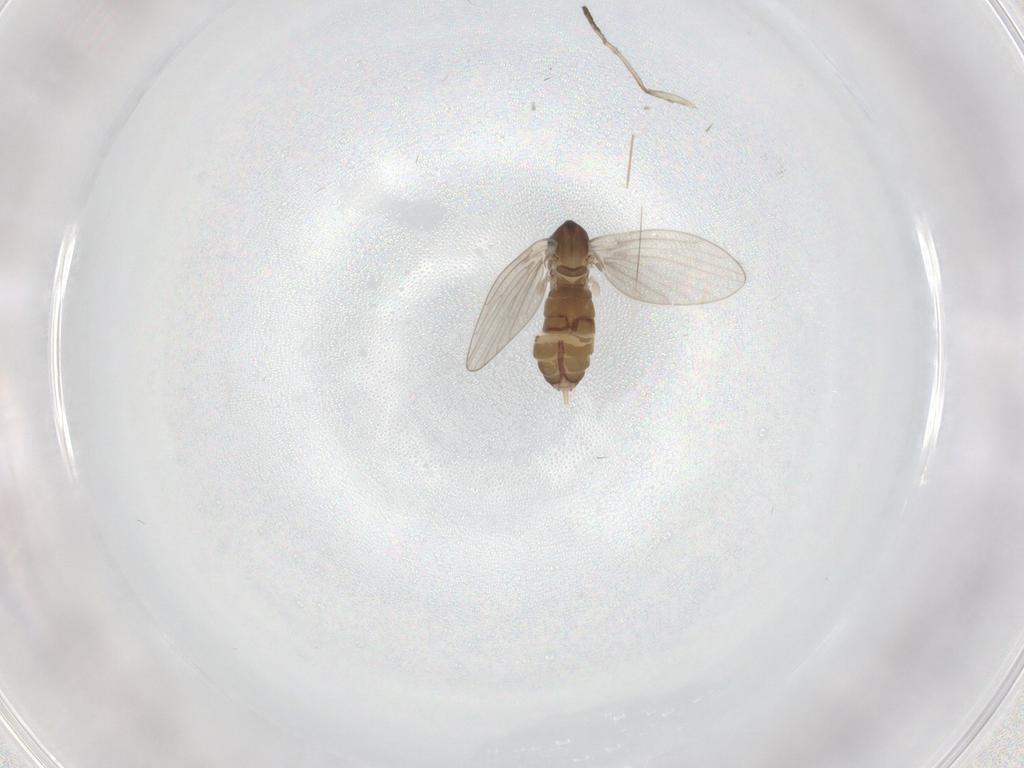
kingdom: Animalia
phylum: Arthropoda
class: Insecta
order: Diptera
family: Chironomidae
